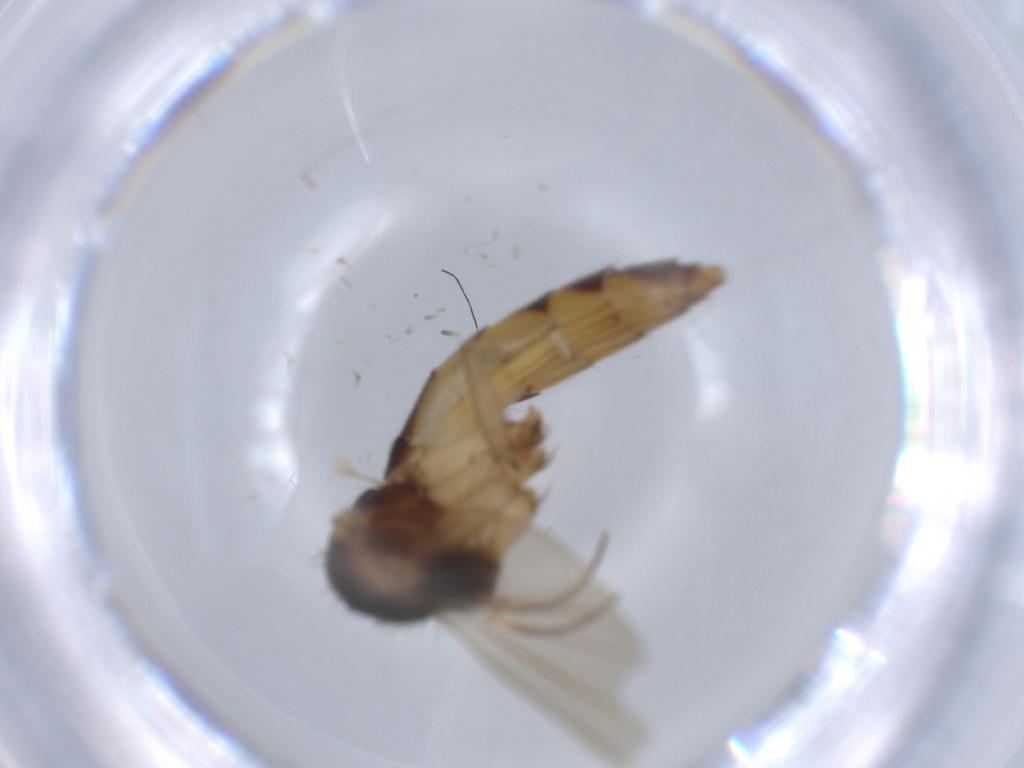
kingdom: Animalia
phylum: Arthropoda
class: Insecta
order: Diptera
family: Mycetophilidae
